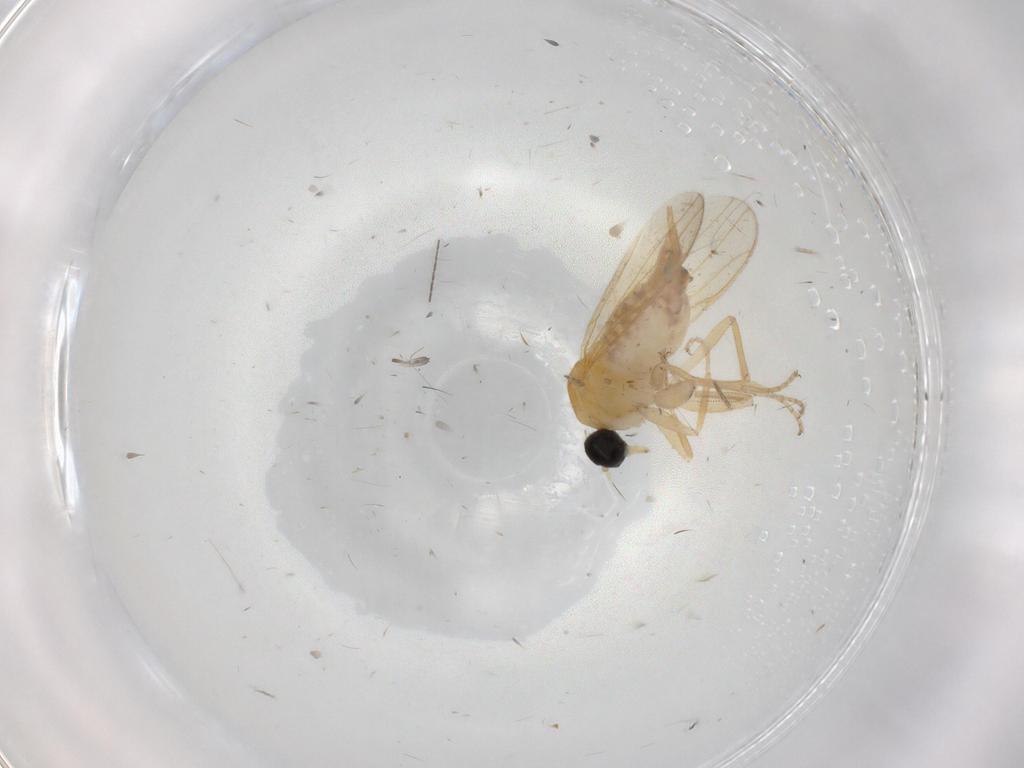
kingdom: Animalia
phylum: Arthropoda
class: Insecta
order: Diptera
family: Hybotidae
